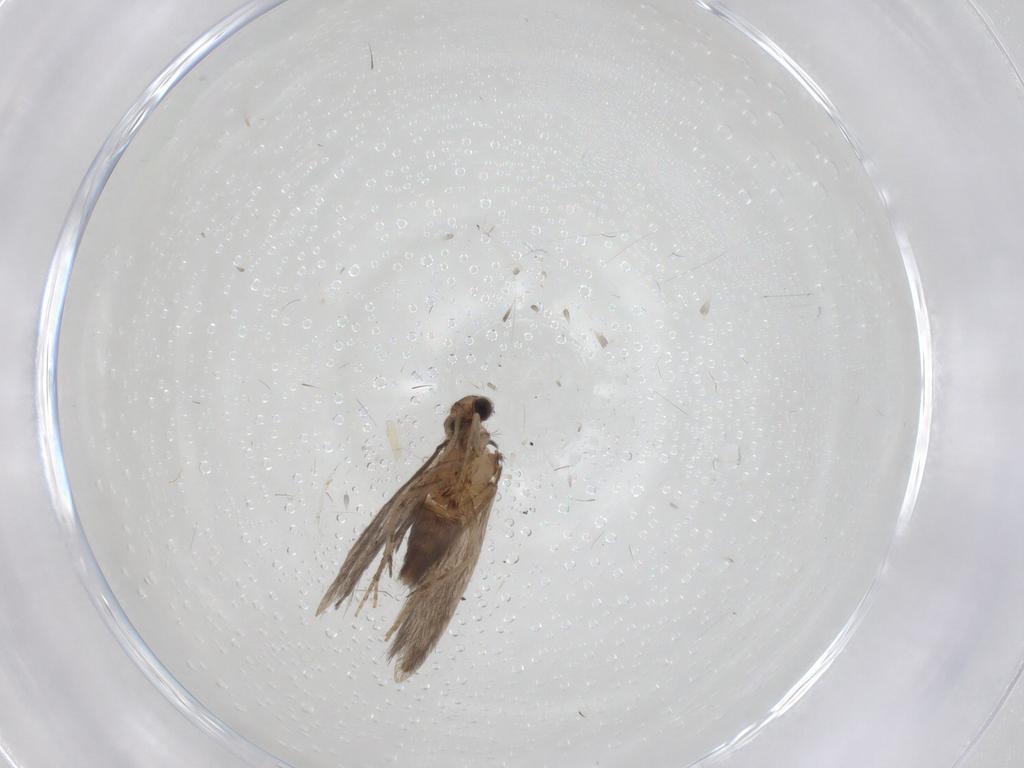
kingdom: Animalia
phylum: Arthropoda
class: Insecta
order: Trichoptera
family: Hydroptilidae
